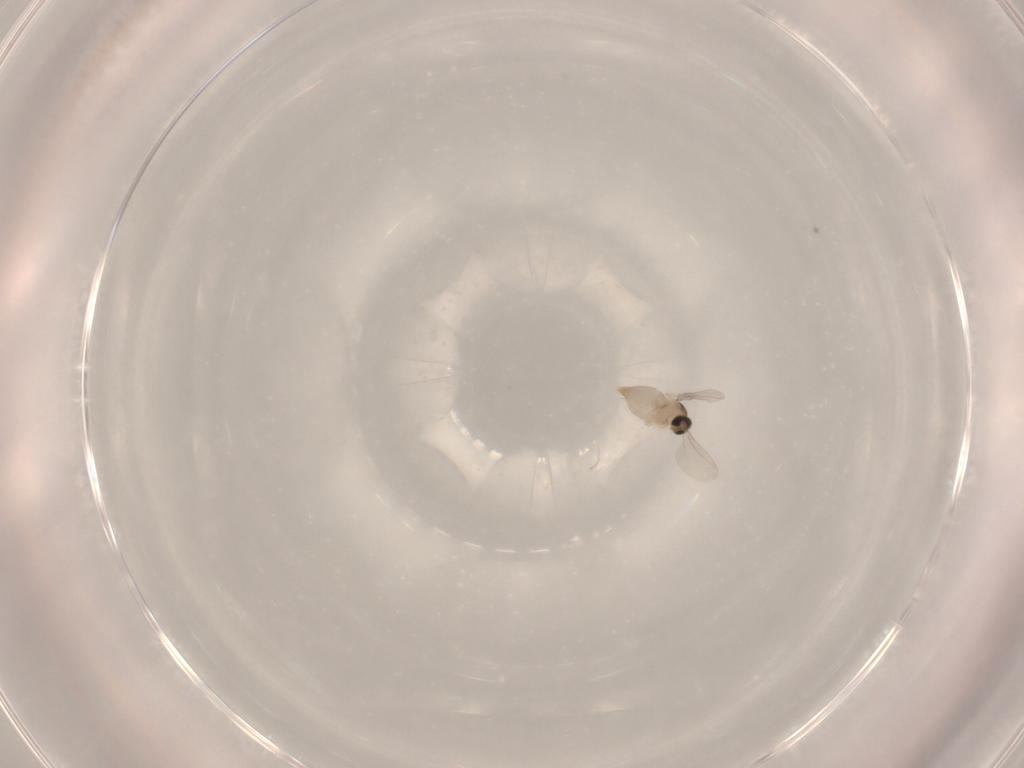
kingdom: Animalia
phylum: Arthropoda
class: Insecta
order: Diptera
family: Cecidomyiidae
